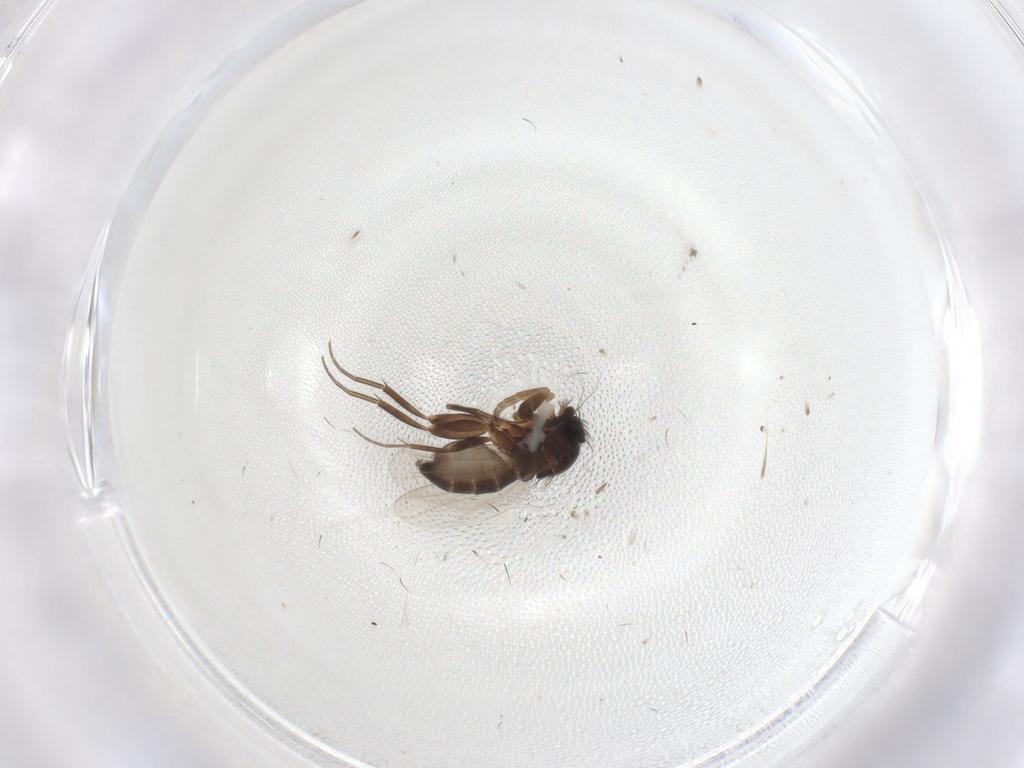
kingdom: Animalia
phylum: Arthropoda
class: Insecta
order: Diptera
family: Phoridae
